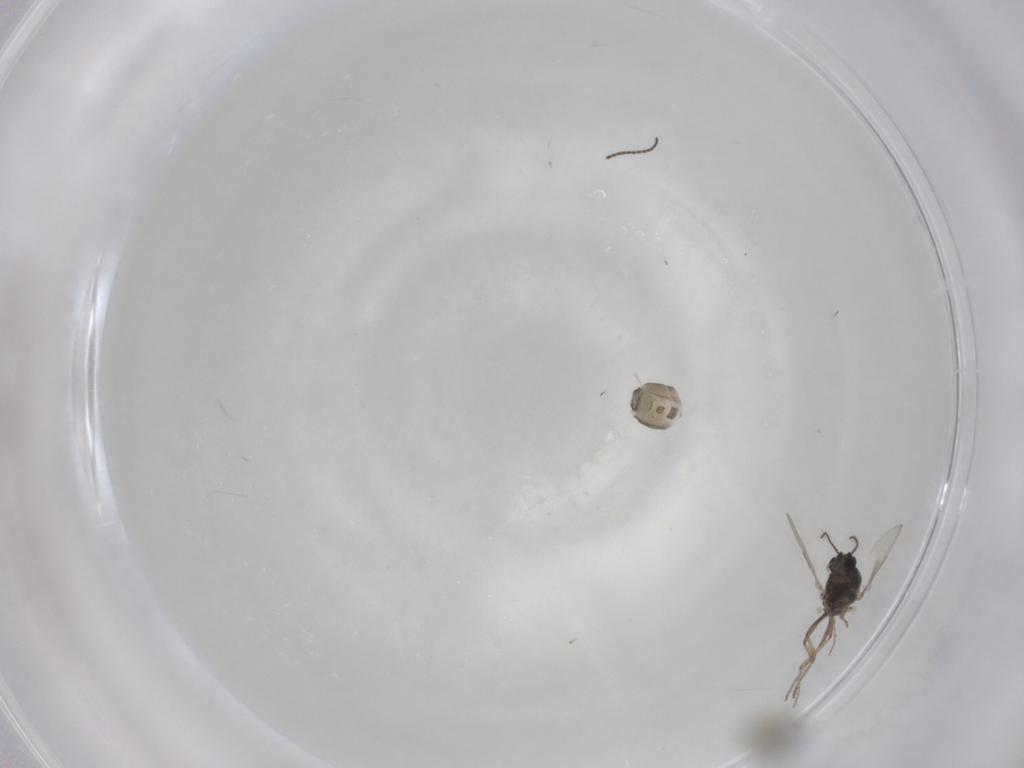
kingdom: Animalia
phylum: Arthropoda
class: Insecta
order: Diptera
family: Ceratopogonidae
